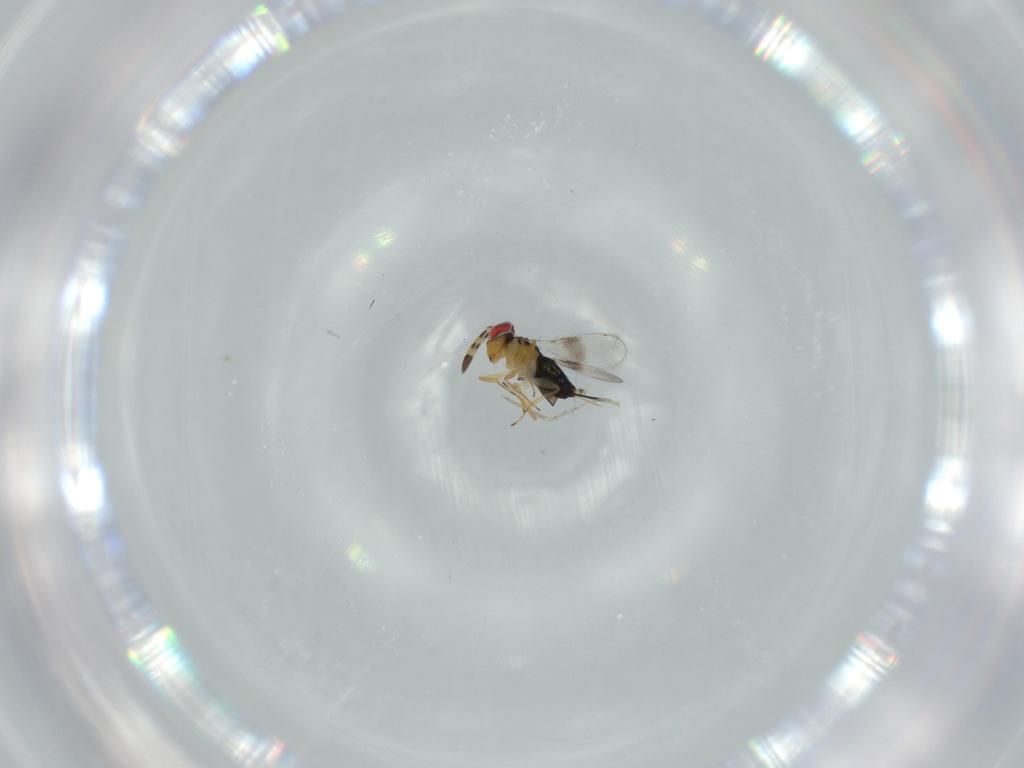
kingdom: Animalia
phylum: Arthropoda
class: Insecta
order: Hymenoptera
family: Azotidae
